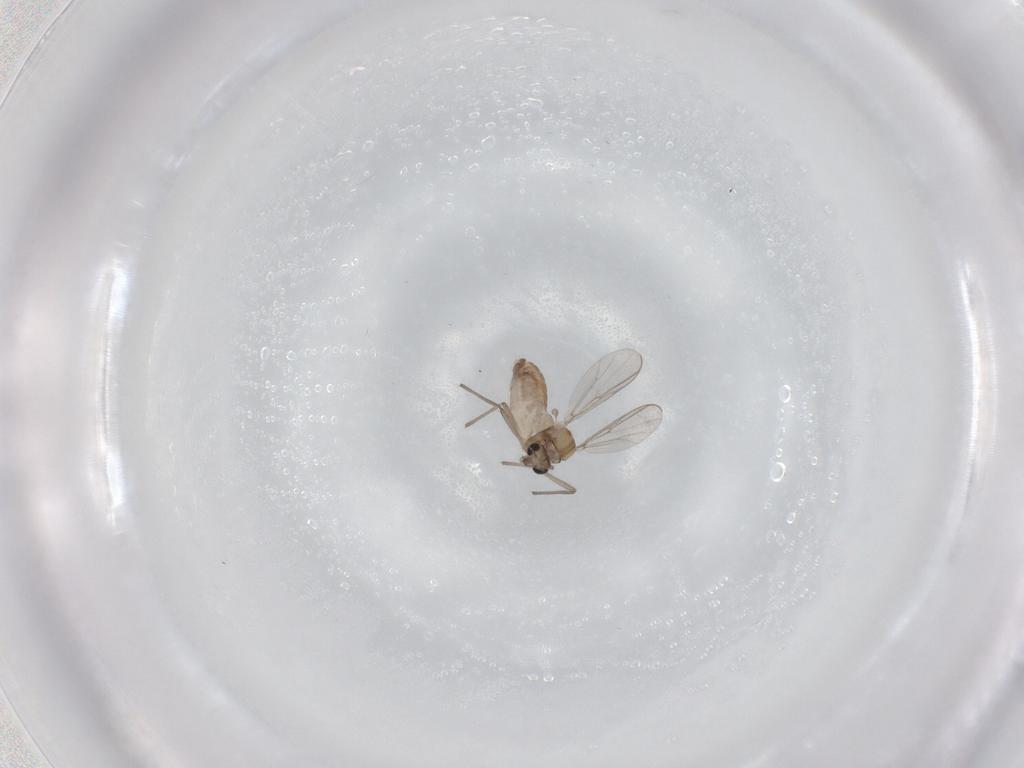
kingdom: Animalia
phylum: Arthropoda
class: Insecta
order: Diptera
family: Chironomidae
